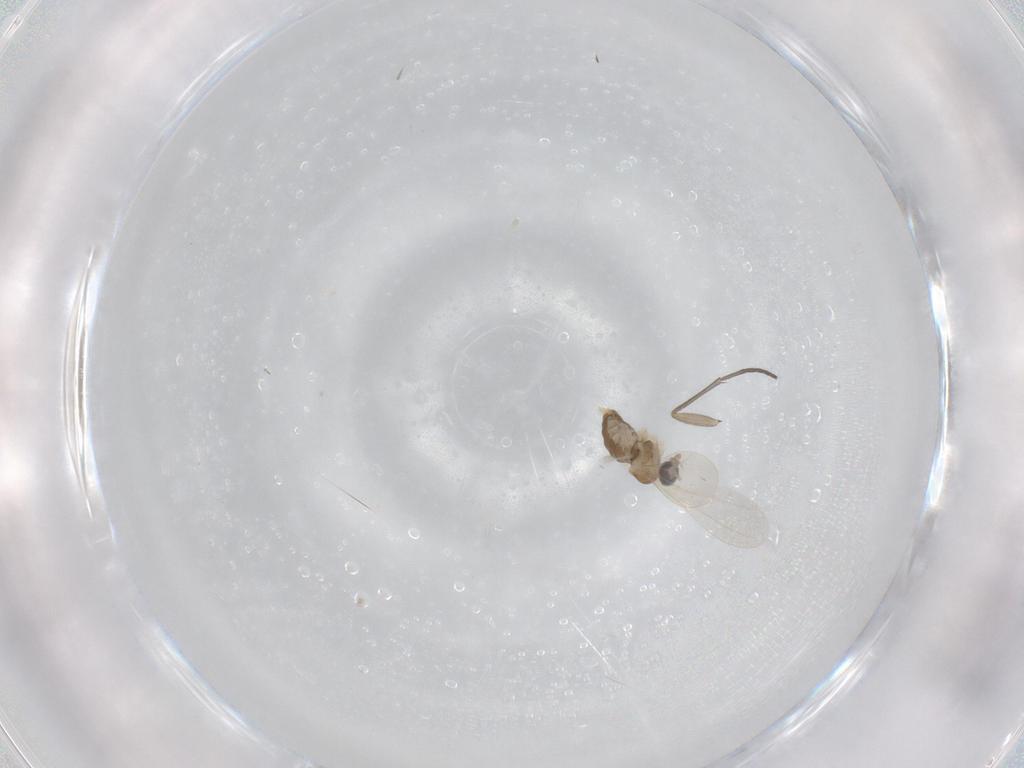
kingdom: Animalia
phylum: Arthropoda
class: Insecta
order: Diptera
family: Cecidomyiidae
